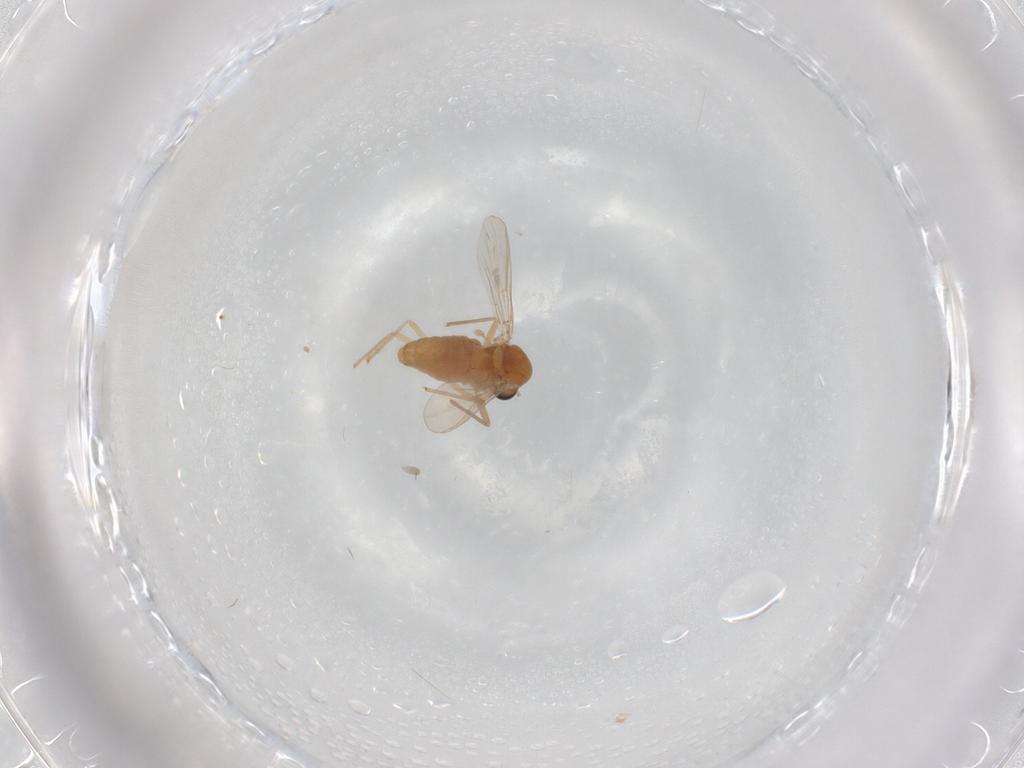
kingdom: Animalia
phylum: Arthropoda
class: Insecta
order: Diptera
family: Chironomidae
